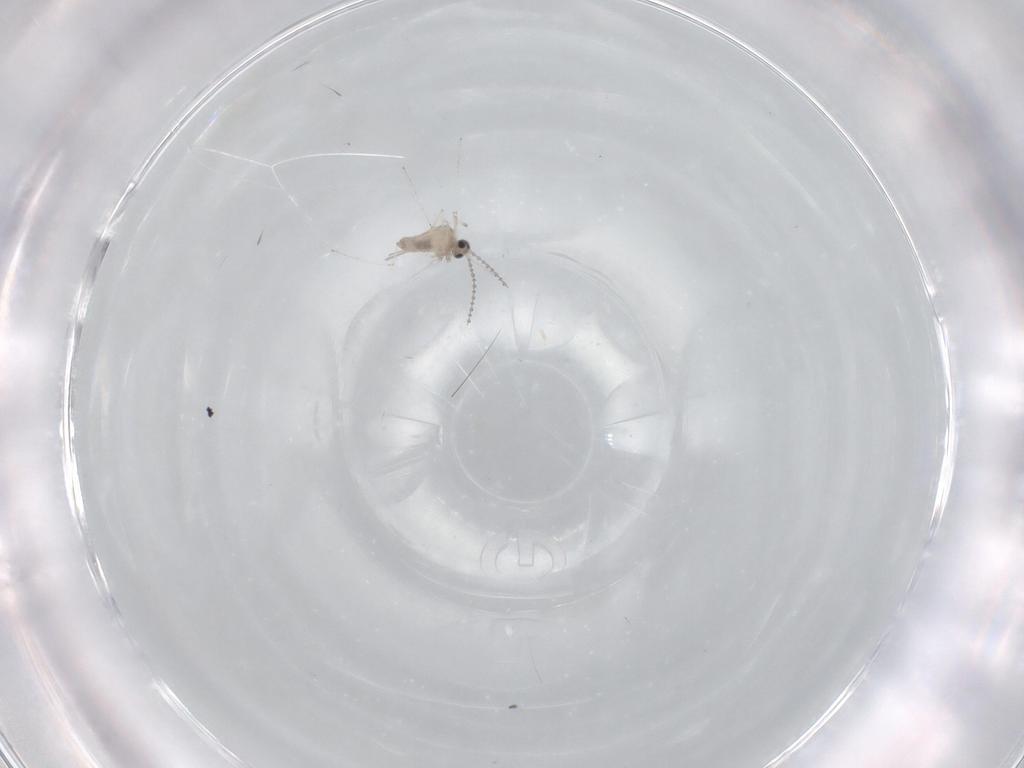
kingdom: Animalia
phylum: Arthropoda
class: Insecta
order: Diptera
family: Cecidomyiidae
